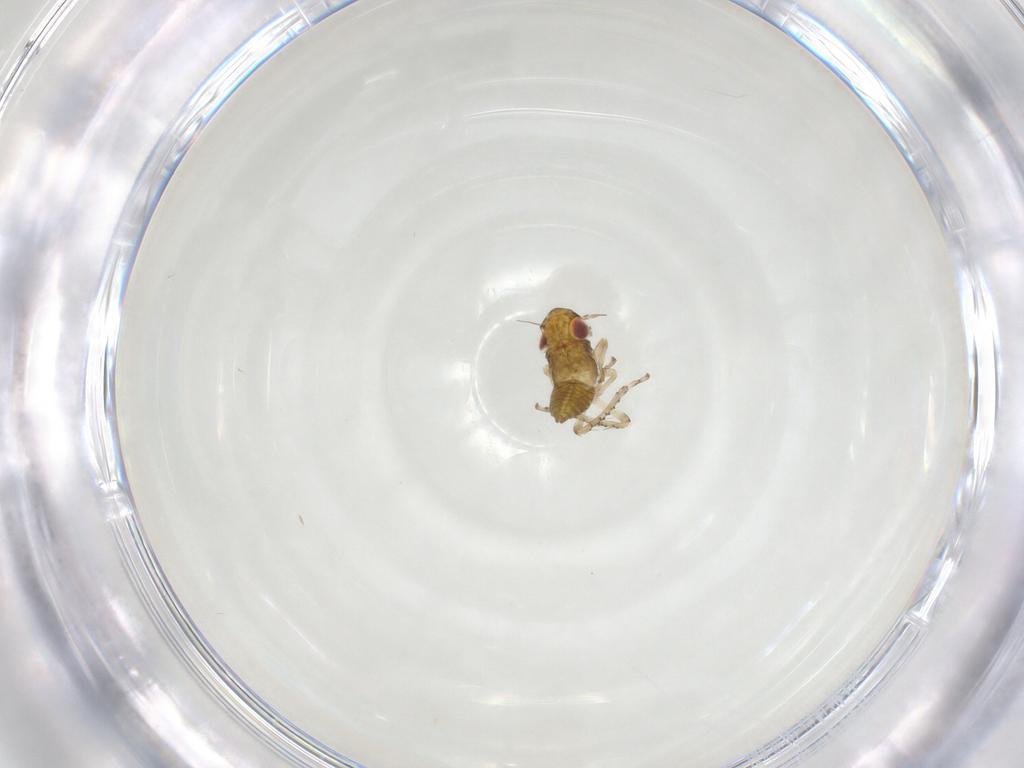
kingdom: Animalia
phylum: Arthropoda
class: Insecta
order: Hemiptera
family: Cicadellidae
